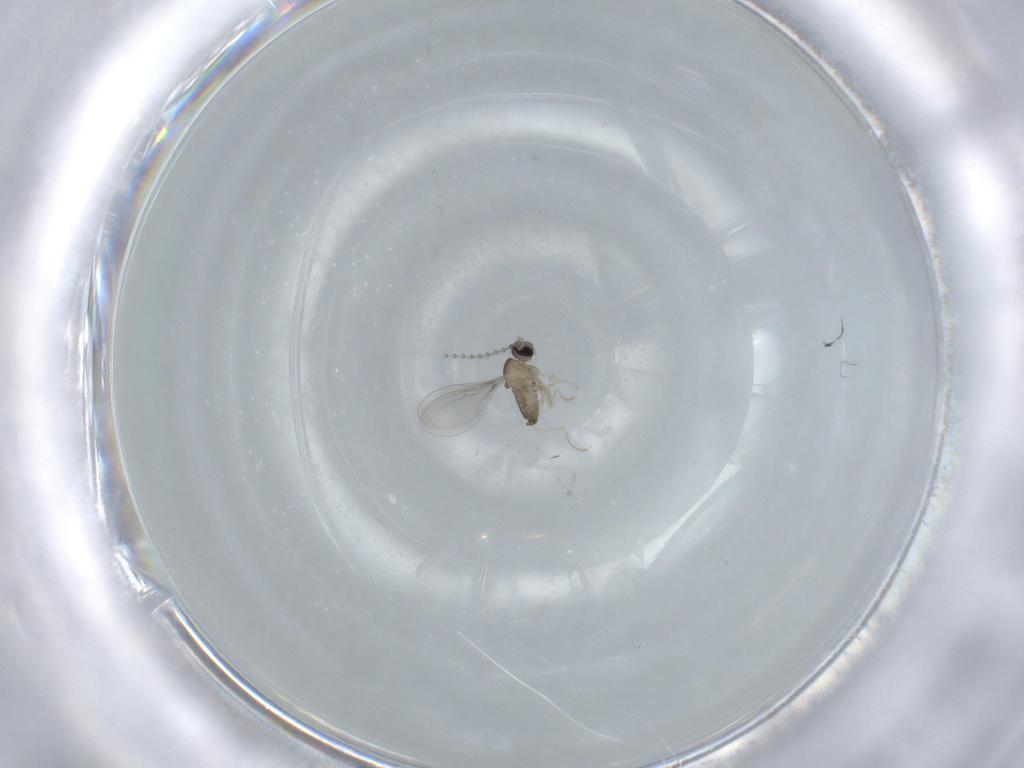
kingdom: Animalia
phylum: Arthropoda
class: Insecta
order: Diptera
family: Cecidomyiidae
